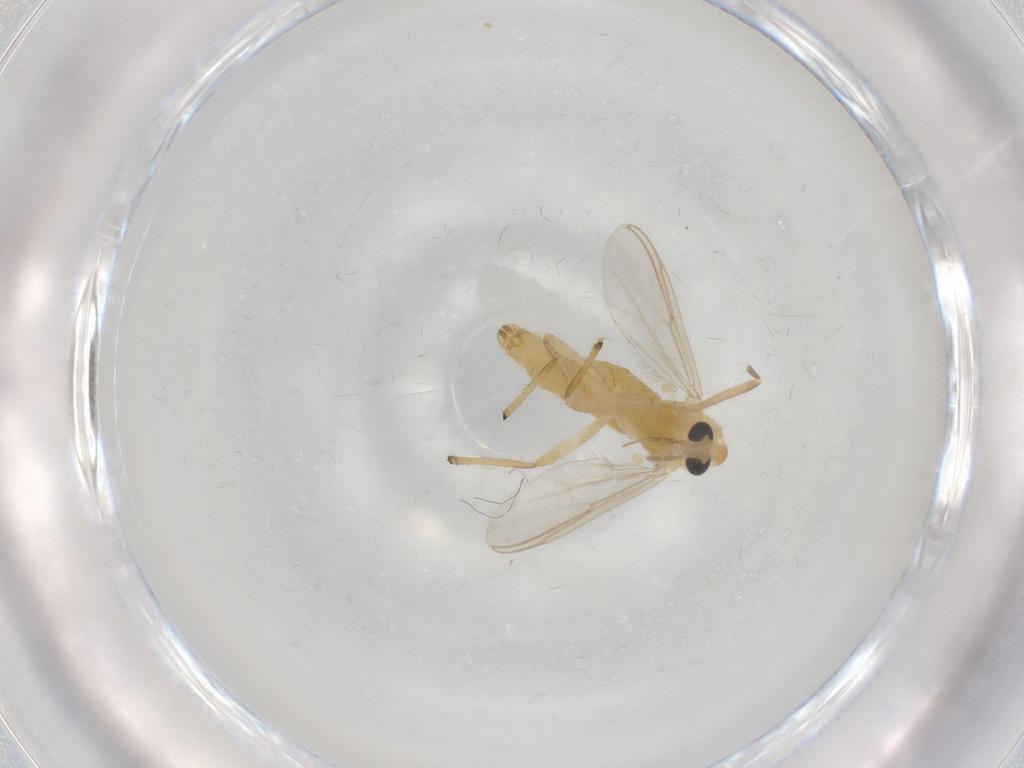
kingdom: Animalia
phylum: Arthropoda
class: Insecta
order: Diptera
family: Chironomidae
